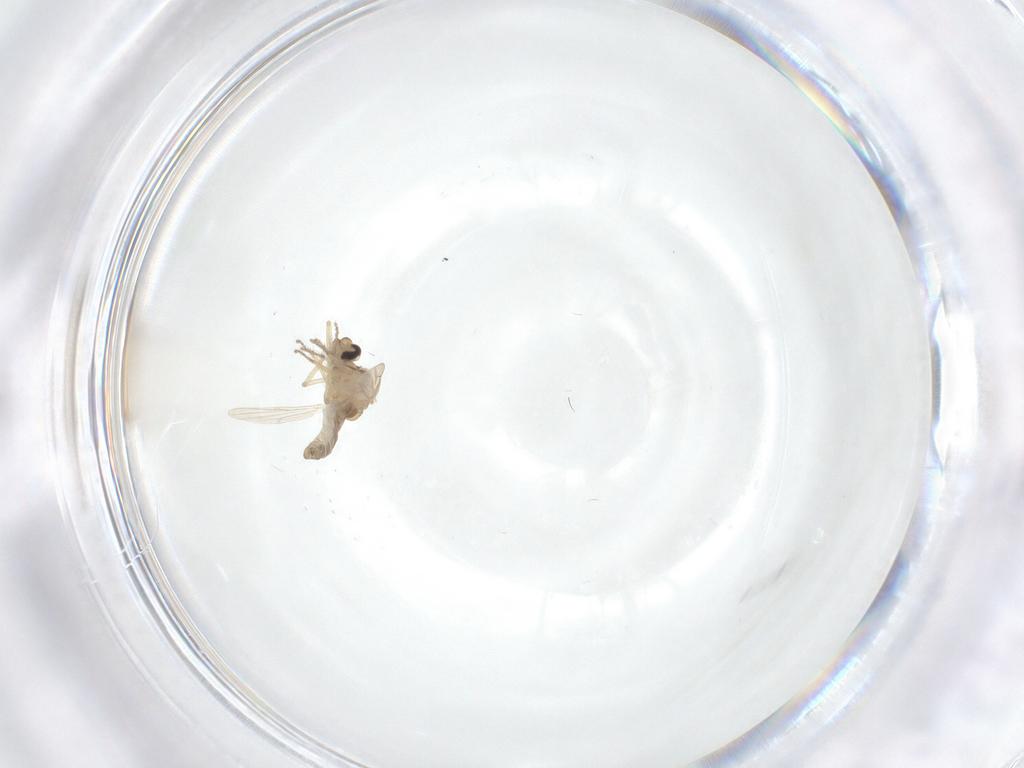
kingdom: Animalia
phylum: Arthropoda
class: Insecta
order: Diptera
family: Ceratopogonidae
